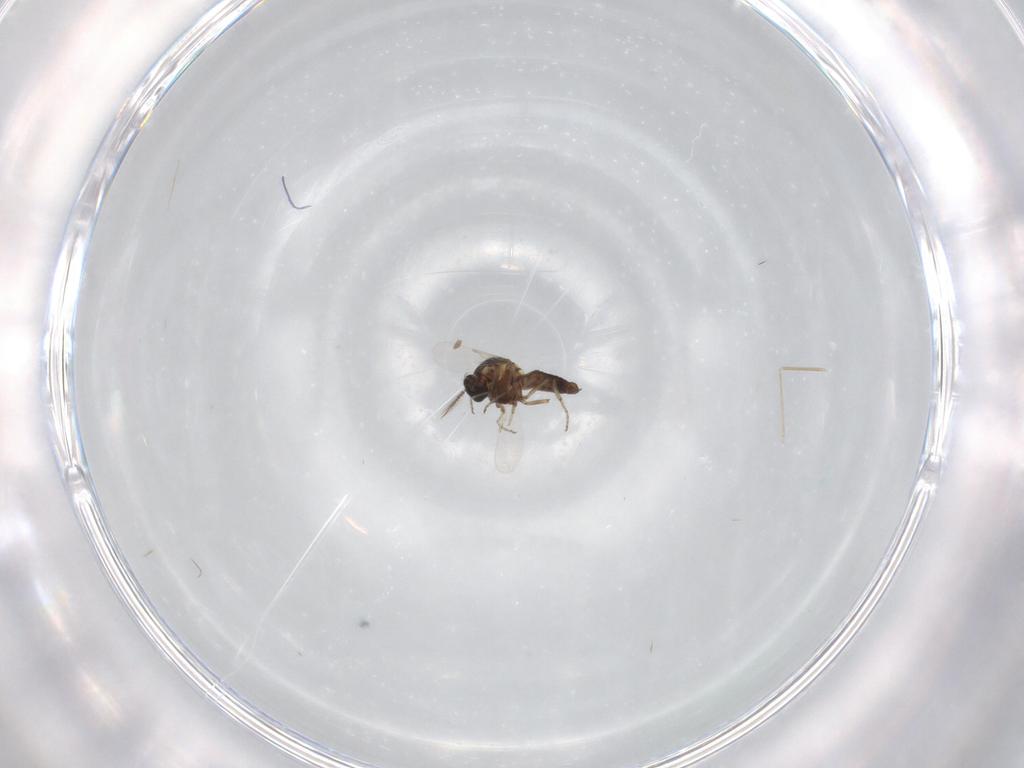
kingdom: Animalia
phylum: Arthropoda
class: Insecta
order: Diptera
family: Ceratopogonidae
